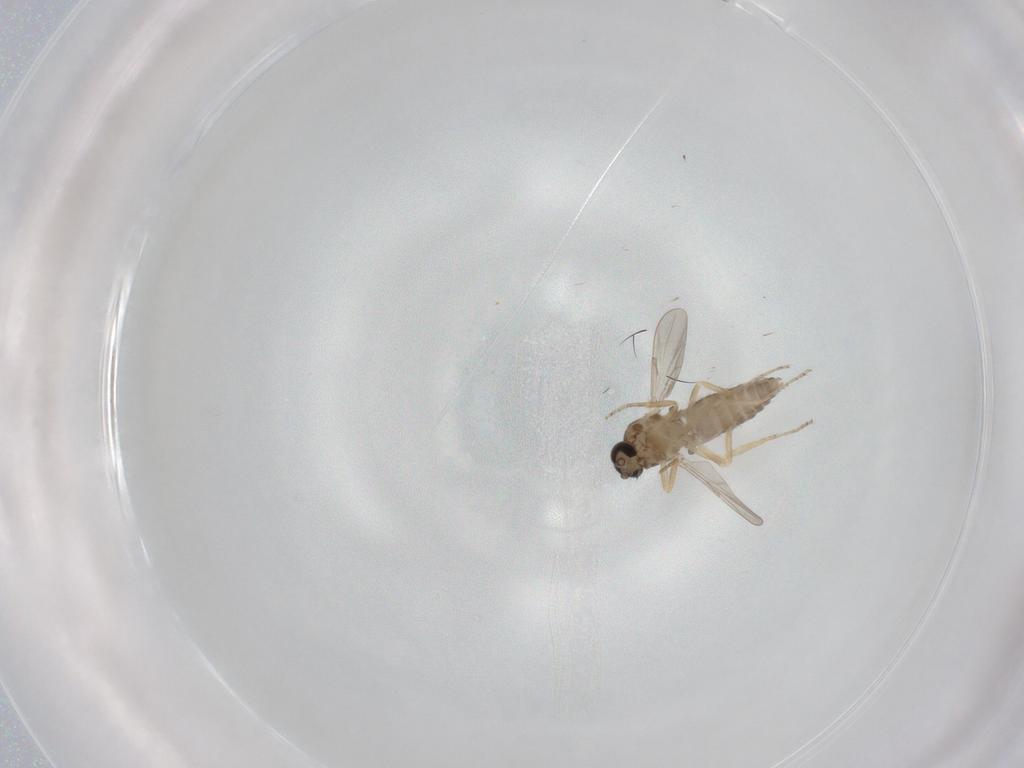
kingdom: Animalia
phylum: Arthropoda
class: Insecta
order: Diptera
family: Ceratopogonidae
